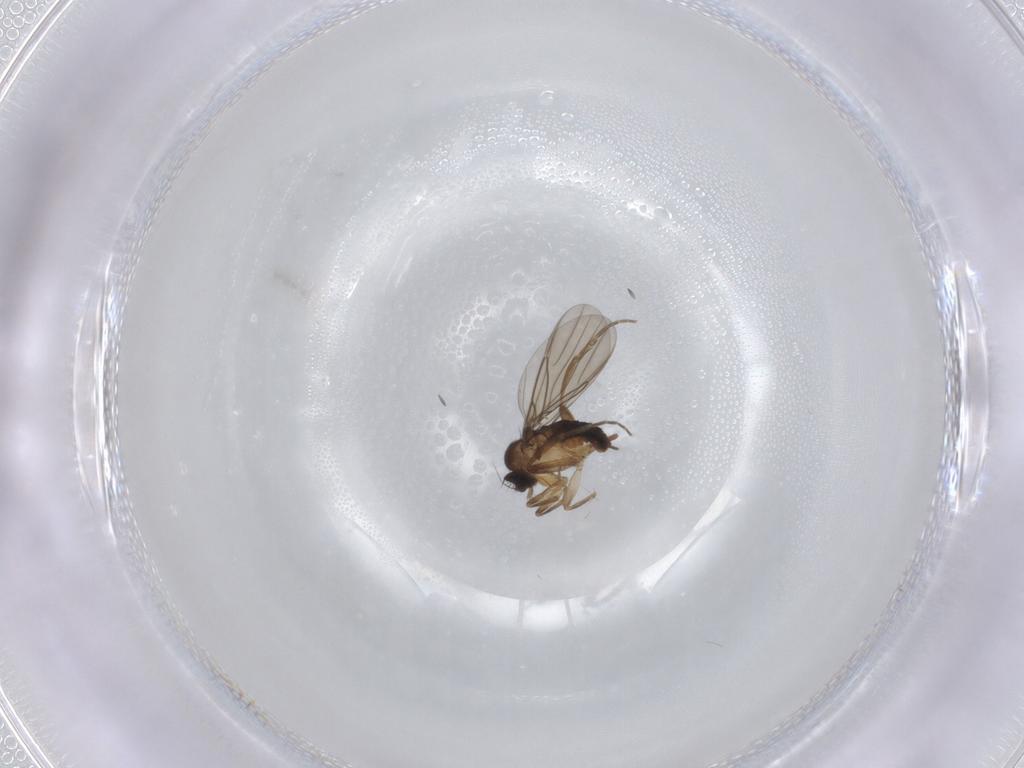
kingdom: Animalia
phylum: Arthropoda
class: Insecta
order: Diptera
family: Phoridae
